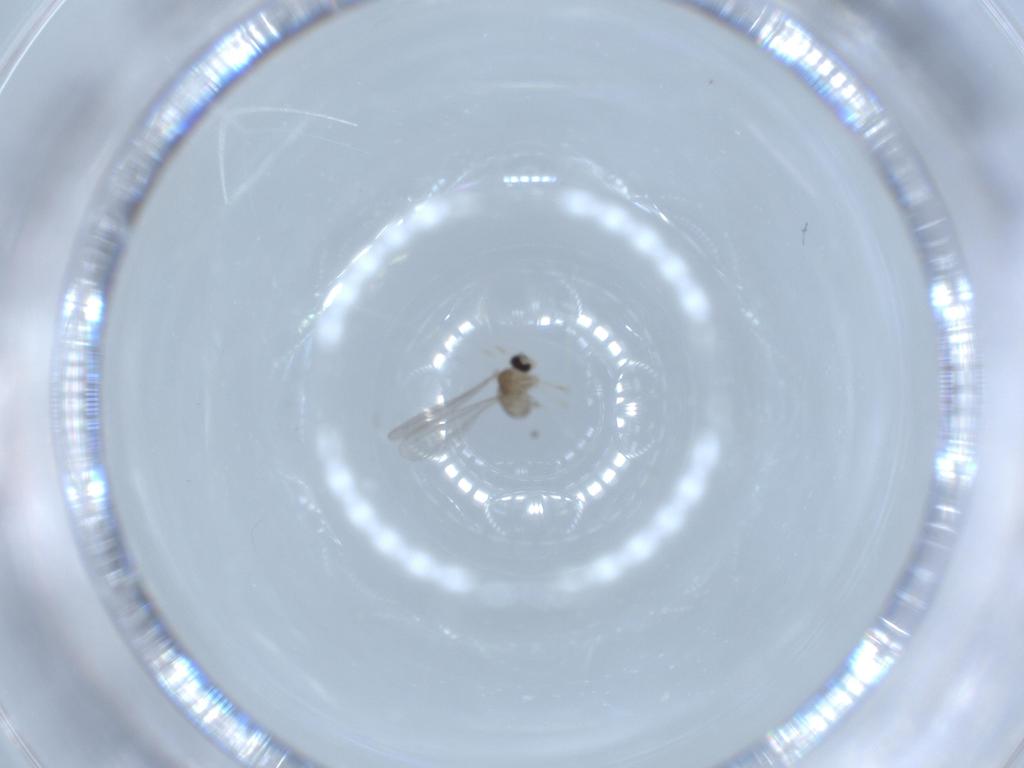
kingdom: Animalia
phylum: Arthropoda
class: Insecta
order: Diptera
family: Cecidomyiidae
